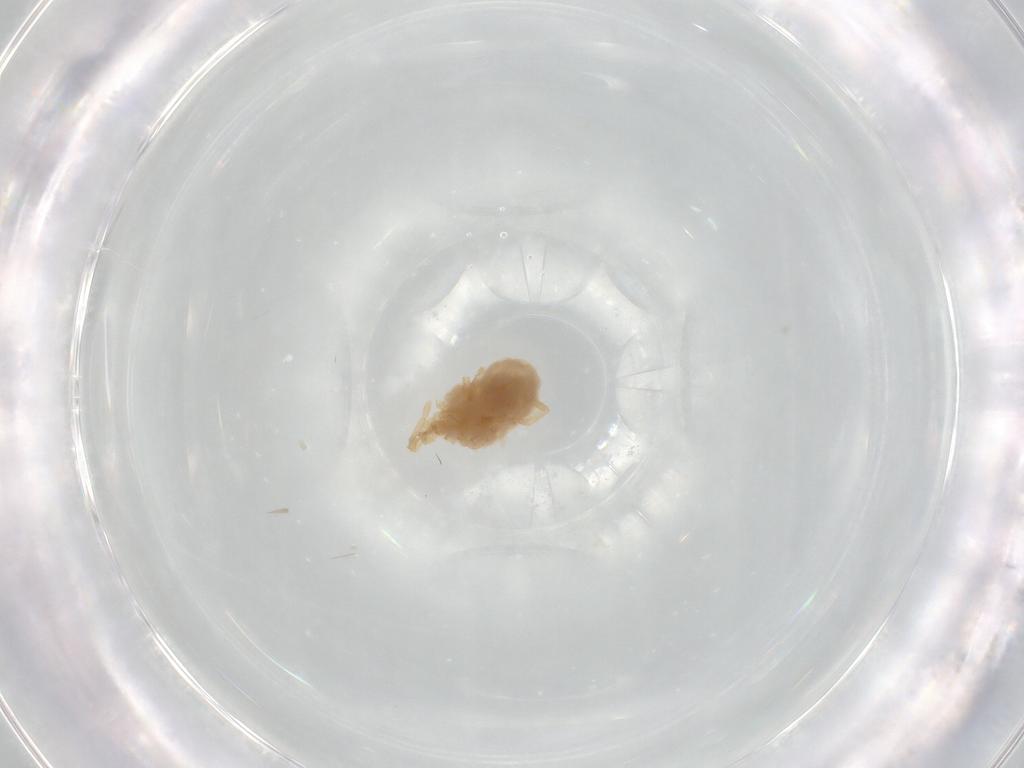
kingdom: Animalia
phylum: Arthropoda
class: Arachnida
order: Trombidiformes
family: Erythraeidae
